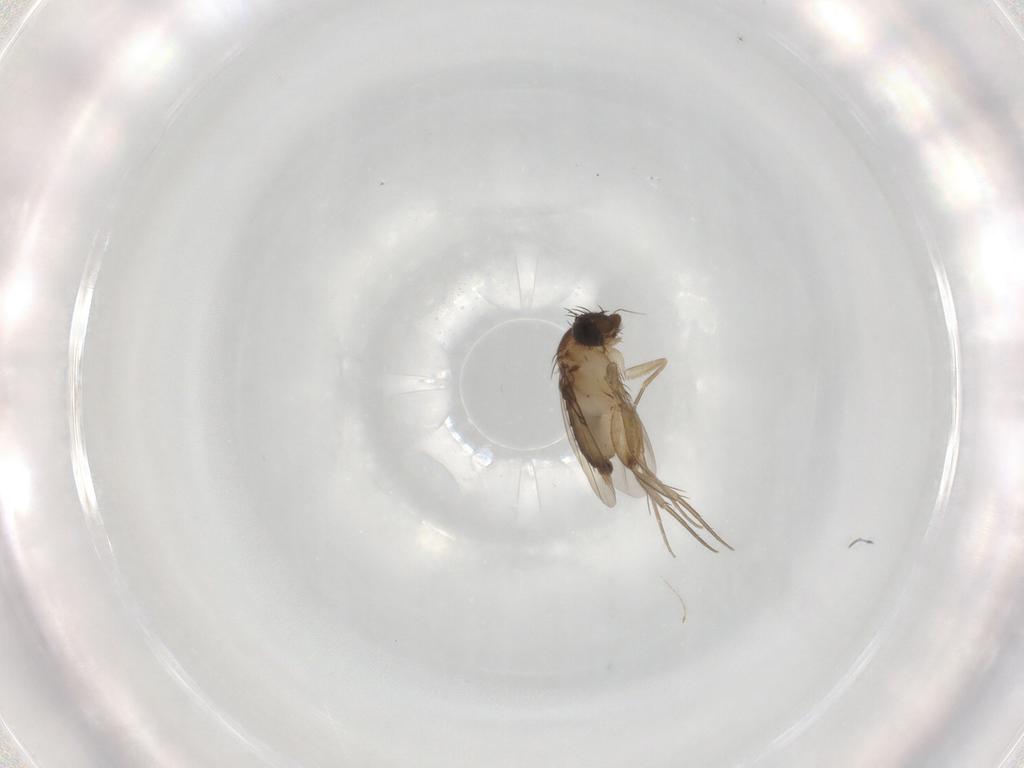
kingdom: Animalia
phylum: Arthropoda
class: Insecta
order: Diptera
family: Phoridae
